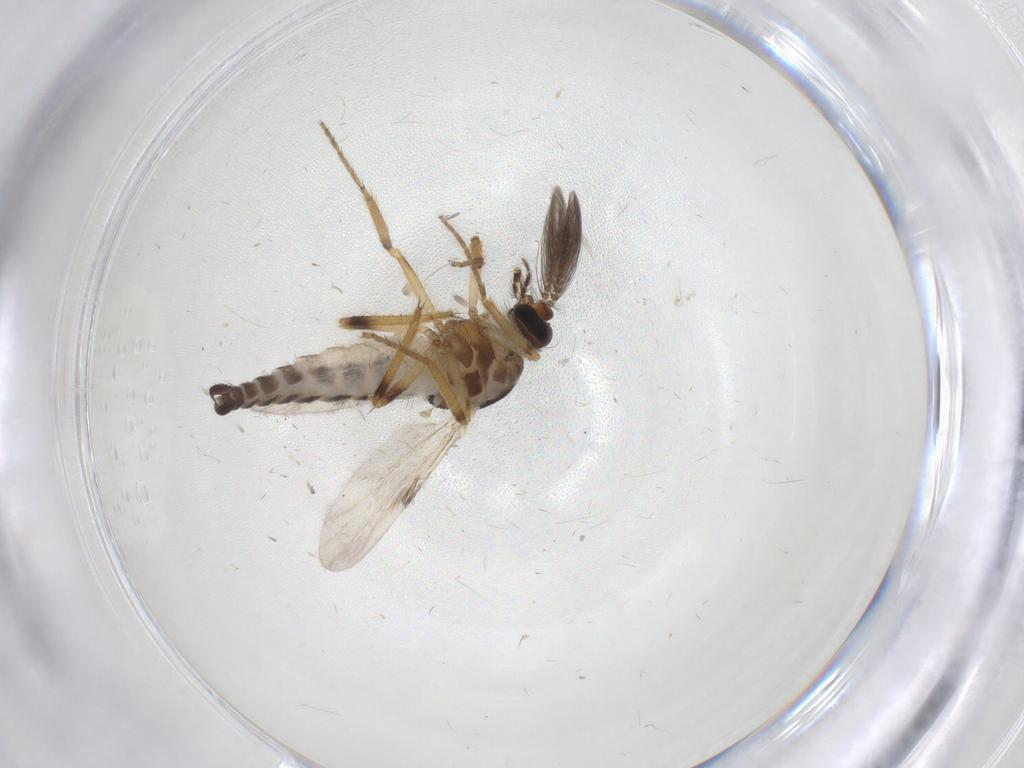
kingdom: Animalia
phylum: Arthropoda
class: Insecta
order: Diptera
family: Ceratopogonidae
